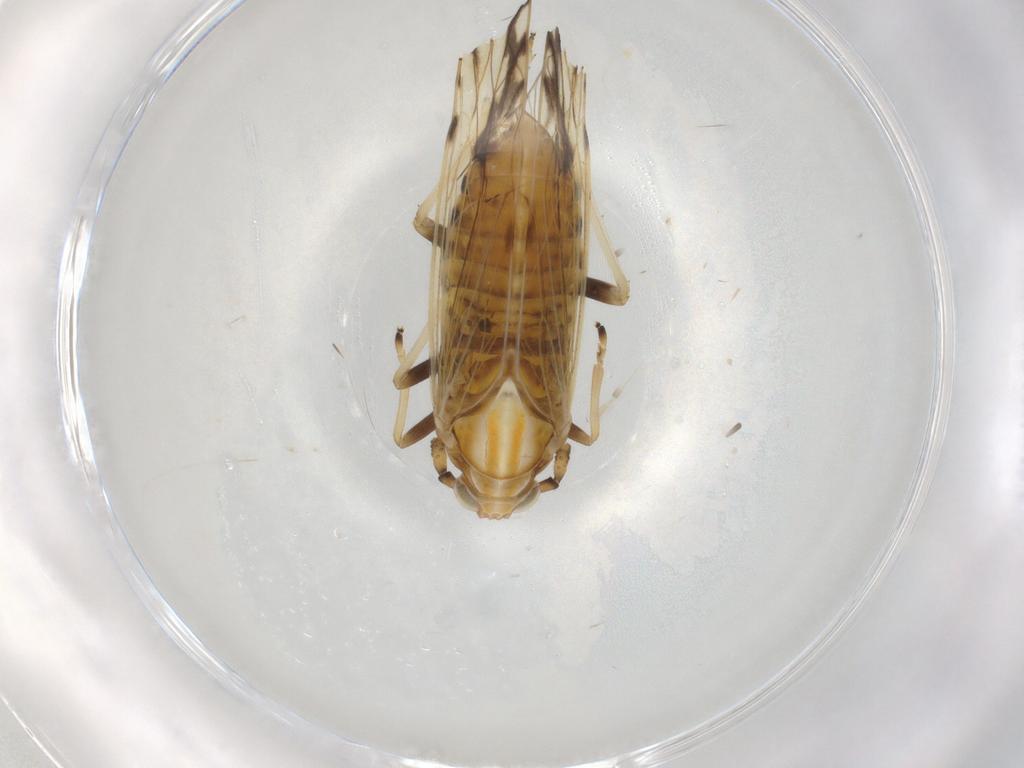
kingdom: Animalia
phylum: Arthropoda
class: Insecta
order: Hemiptera
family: Delphacidae
